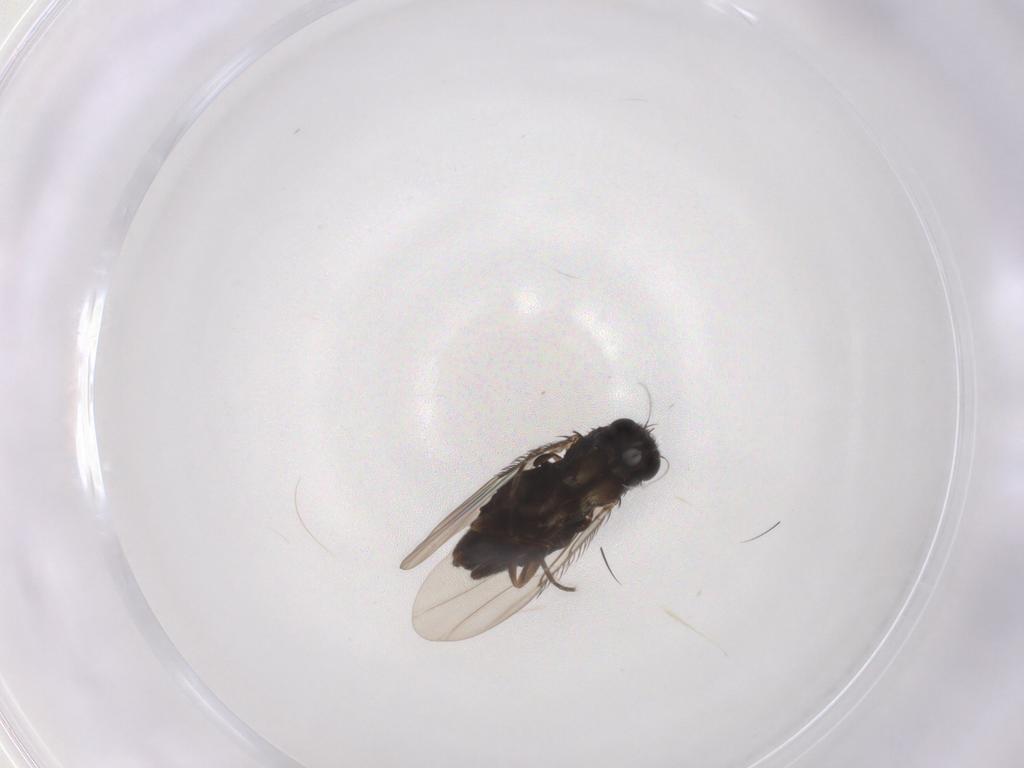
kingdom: Animalia
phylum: Arthropoda
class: Insecta
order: Diptera
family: Phoridae
